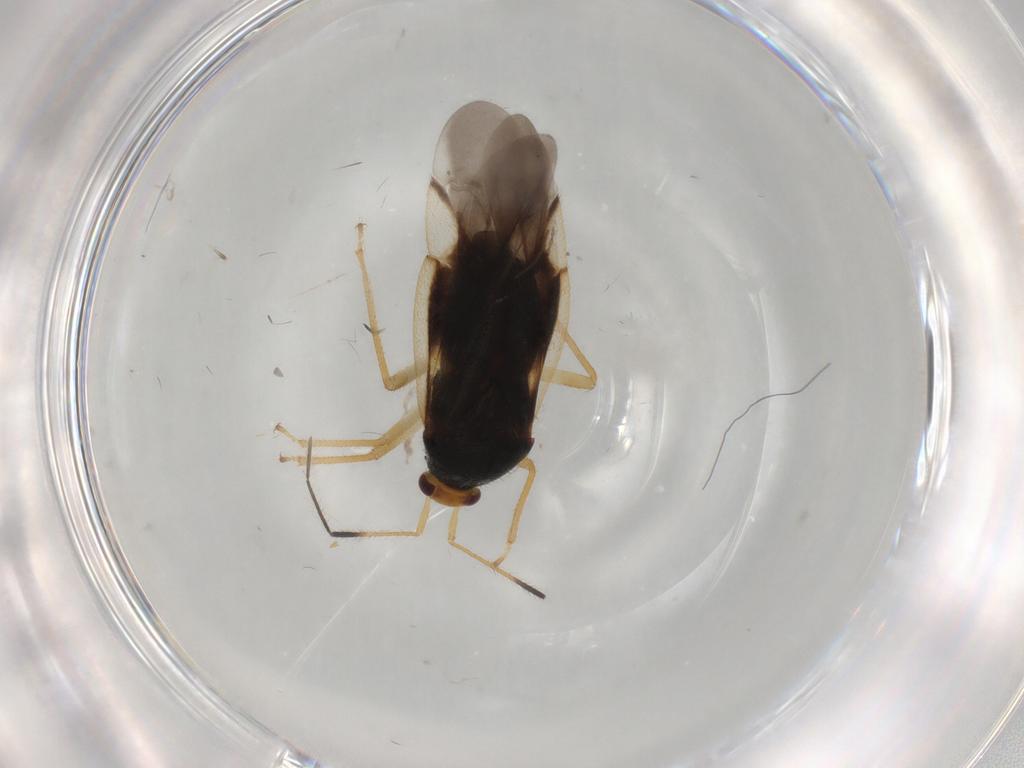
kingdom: Animalia
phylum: Arthropoda
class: Insecta
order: Hemiptera
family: Miridae
